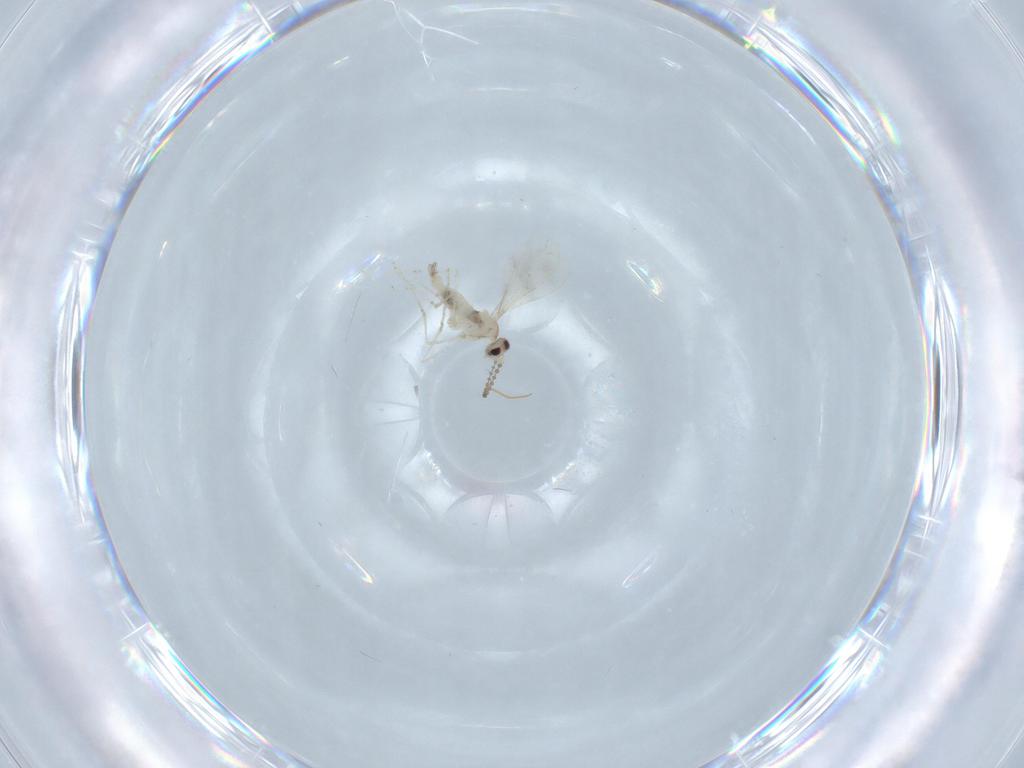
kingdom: Animalia
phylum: Arthropoda
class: Insecta
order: Diptera
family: Cecidomyiidae
